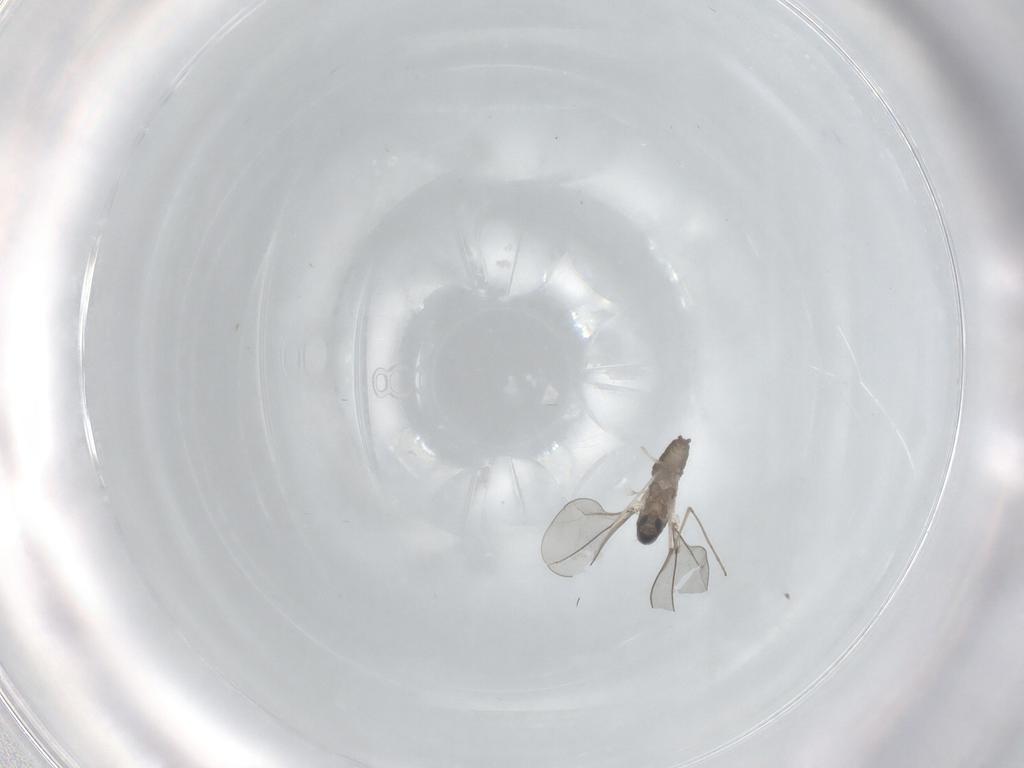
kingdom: Animalia
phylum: Arthropoda
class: Insecta
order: Diptera
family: Cecidomyiidae
